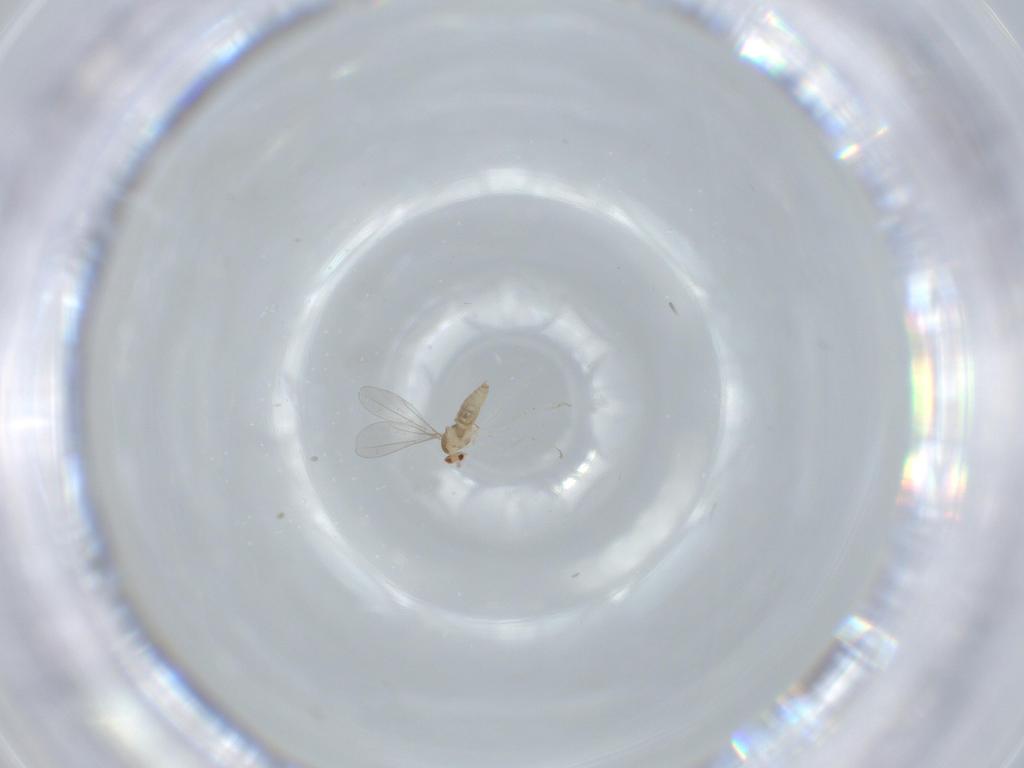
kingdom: Animalia
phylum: Arthropoda
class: Insecta
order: Diptera
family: Cecidomyiidae
